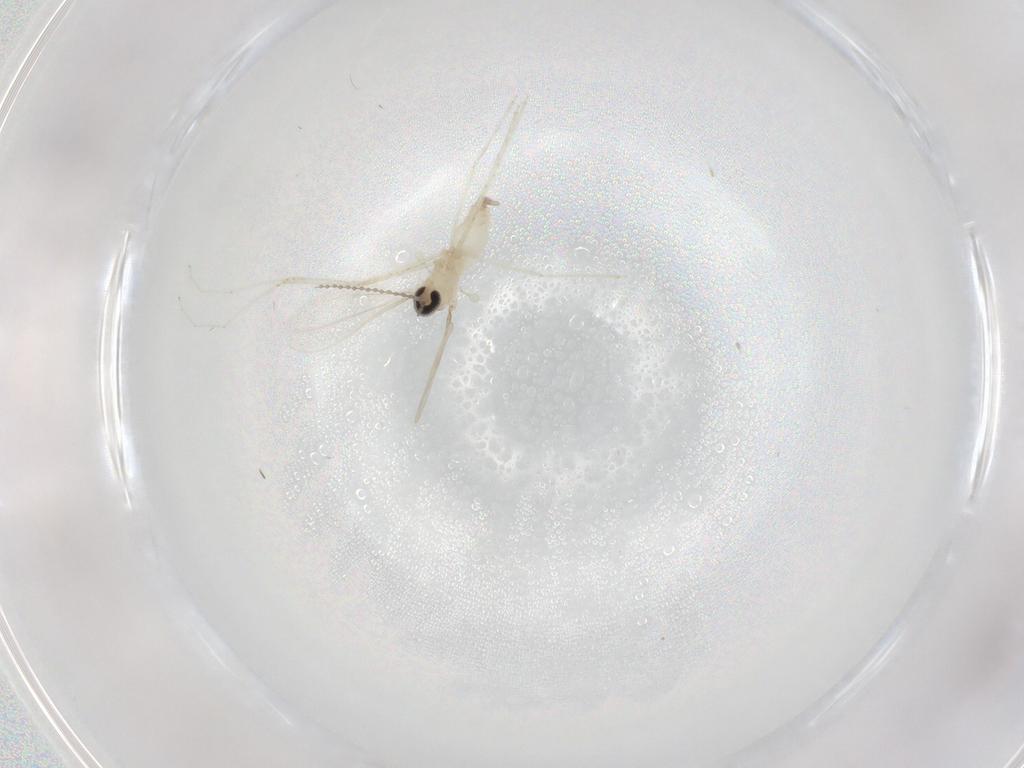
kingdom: Animalia
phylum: Arthropoda
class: Insecta
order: Diptera
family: Cecidomyiidae
